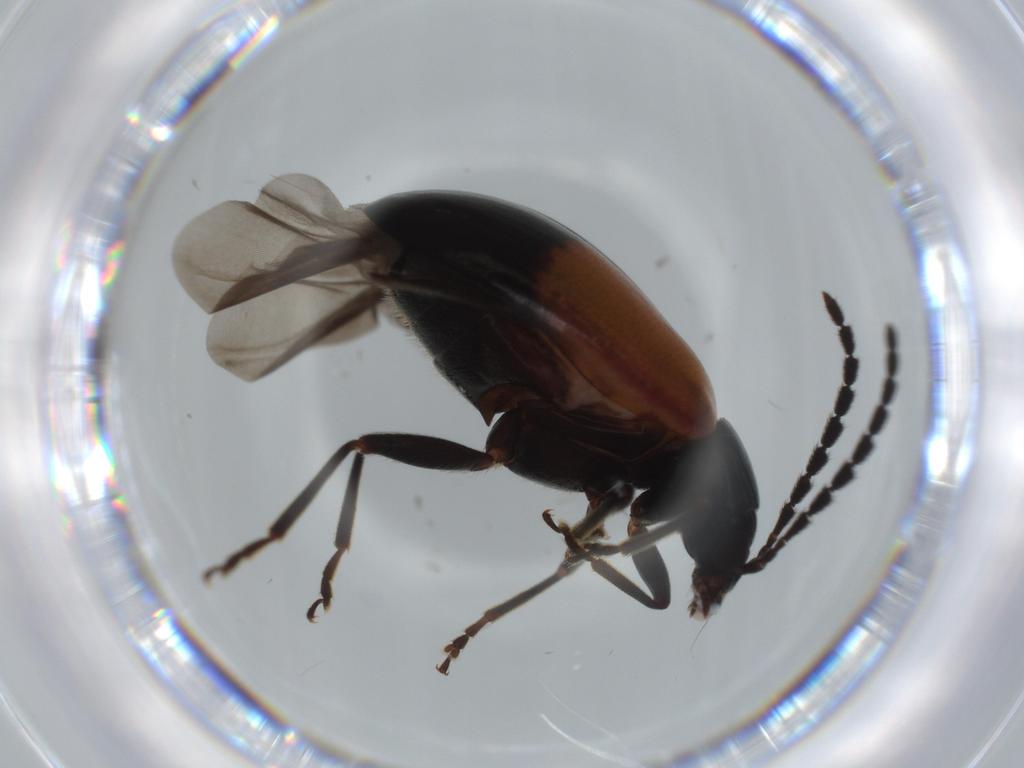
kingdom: Animalia
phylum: Arthropoda
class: Insecta
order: Coleoptera
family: Chrysomelidae
